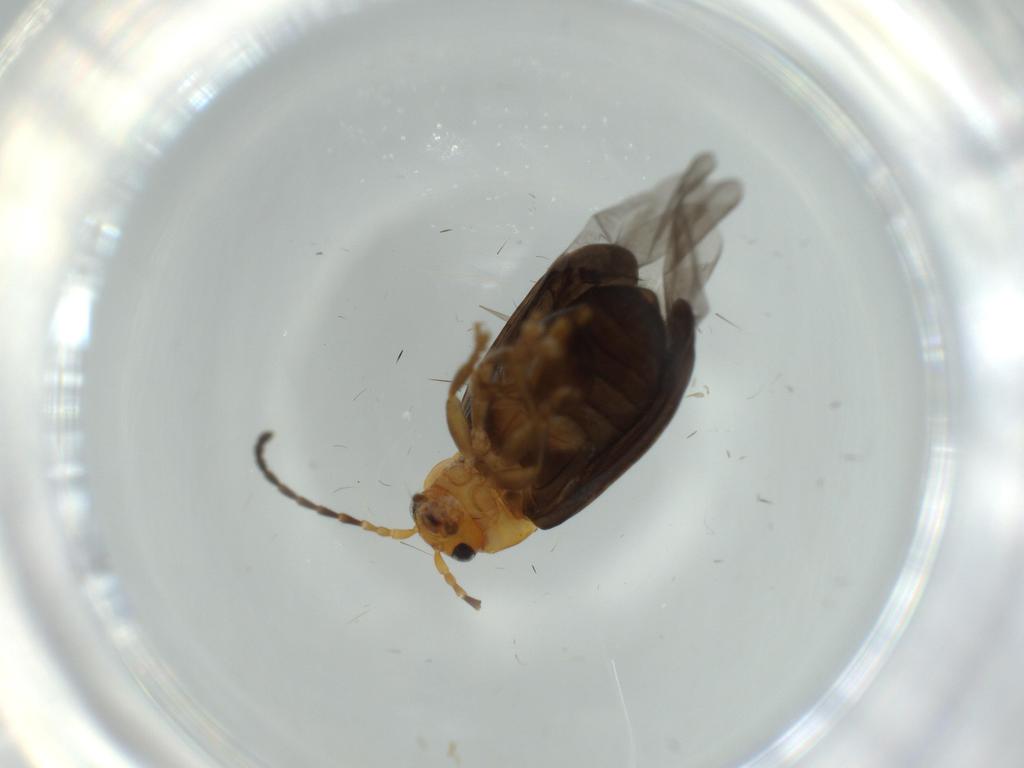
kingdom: Animalia
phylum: Arthropoda
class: Insecta
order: Coleoptera
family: Chrysomelidae
